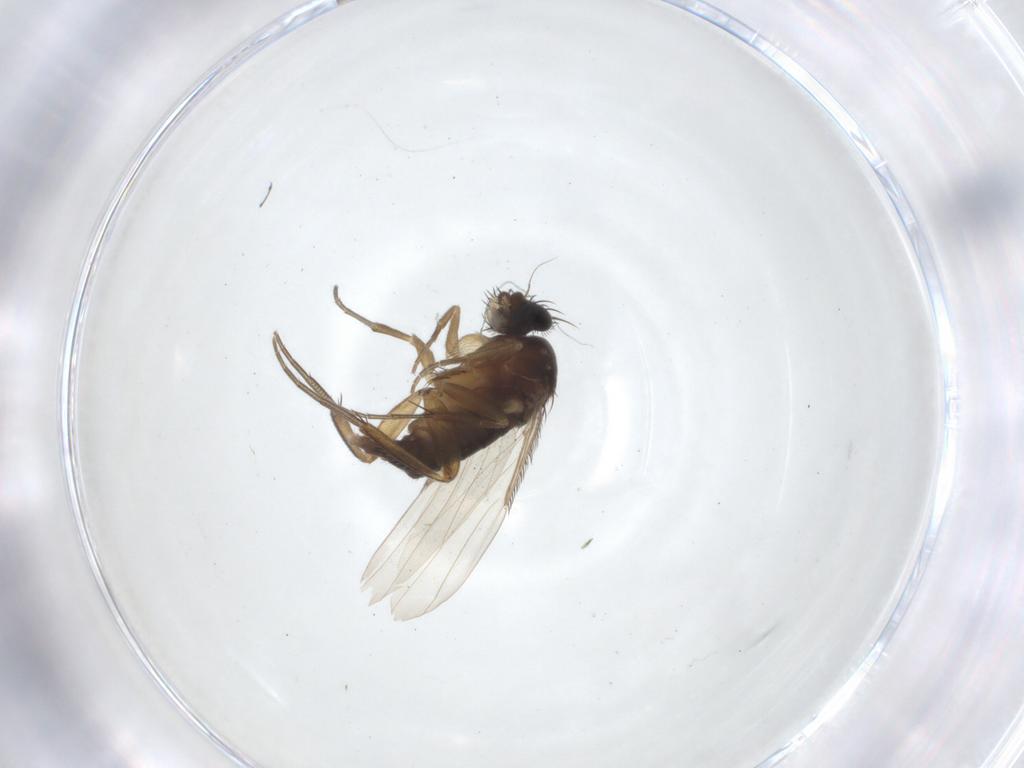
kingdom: Animalia
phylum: Arthropoda
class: Insecta
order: Diptera
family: Phoridae
